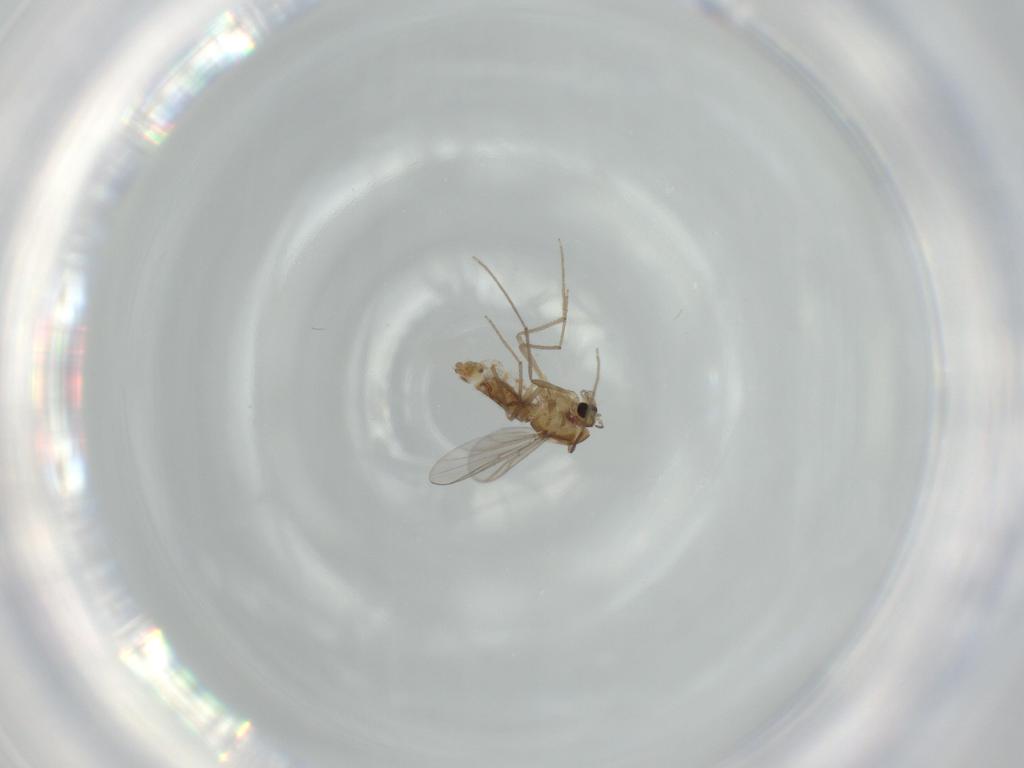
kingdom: Animalia
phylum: Arthropoda
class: Insecta
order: Diptera
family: Chironomidae
